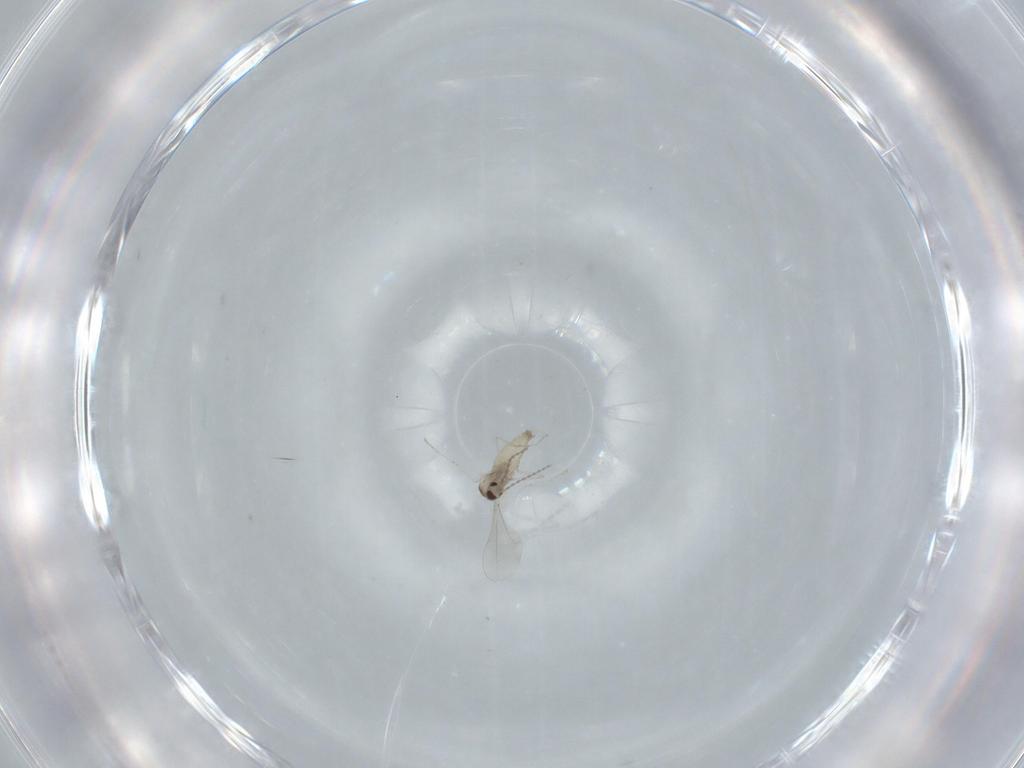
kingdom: Animalia
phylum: Arthropoda
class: Insecta
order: Diptera
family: Cecidomyiidae
